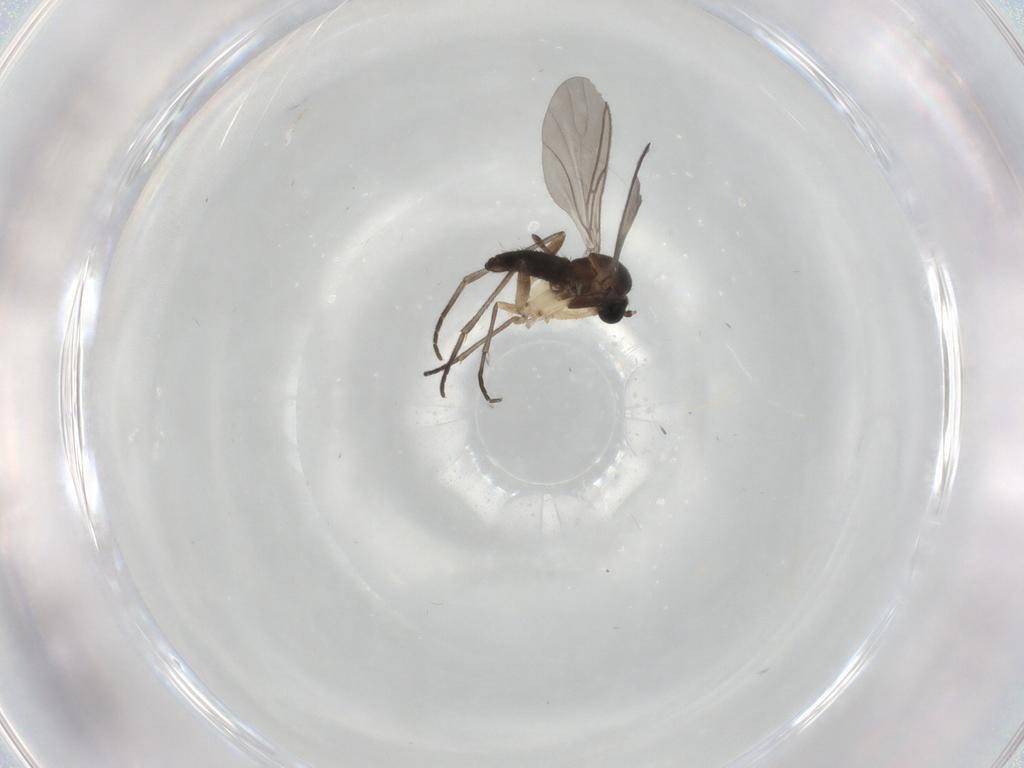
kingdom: Animalia
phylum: Arthropoda
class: Insecta
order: Diptera
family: Sciaridae
